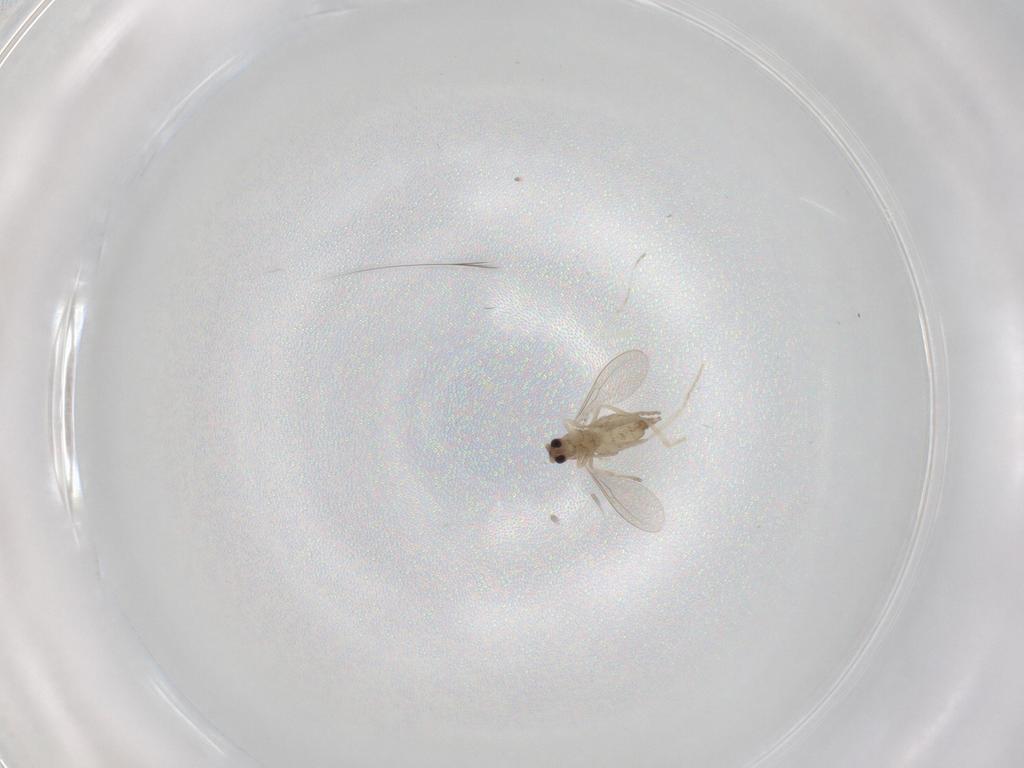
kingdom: Animalia
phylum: Arthropoda
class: Insecta
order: Diptera
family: Cecidomyiidae
